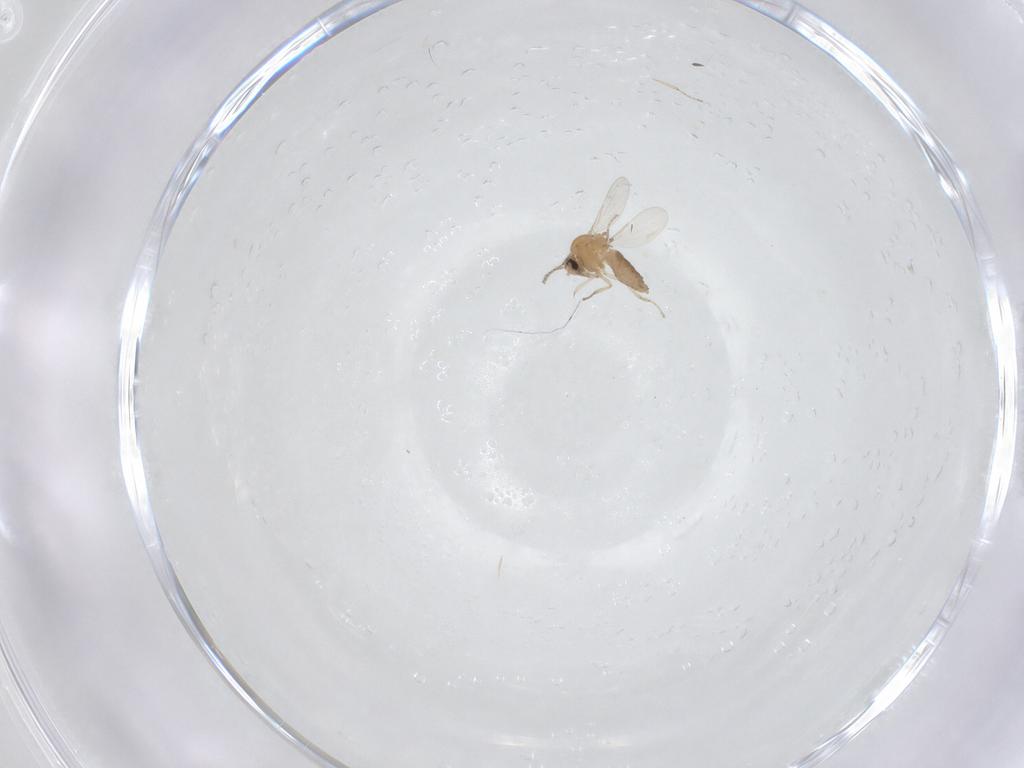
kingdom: Animalia
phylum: Arthropoda
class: Insecta
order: Diptera
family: Ceratopogonidae
